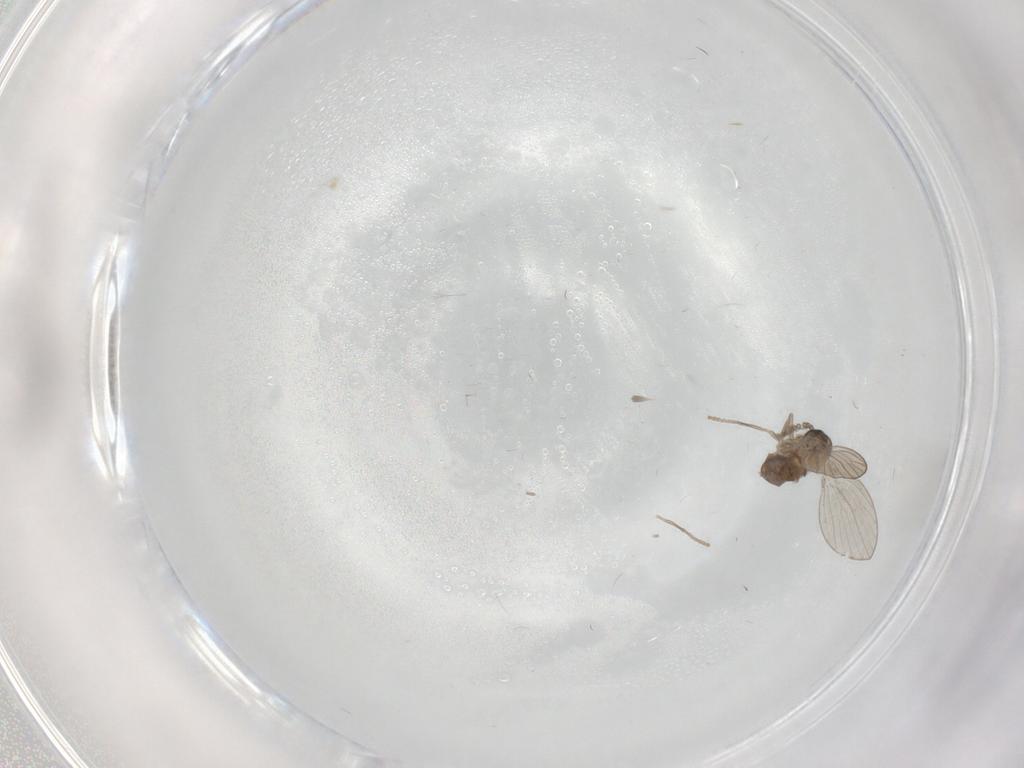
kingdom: Animalia
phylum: Arthropoda
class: Insecta
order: Diptera
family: Psychodidae
